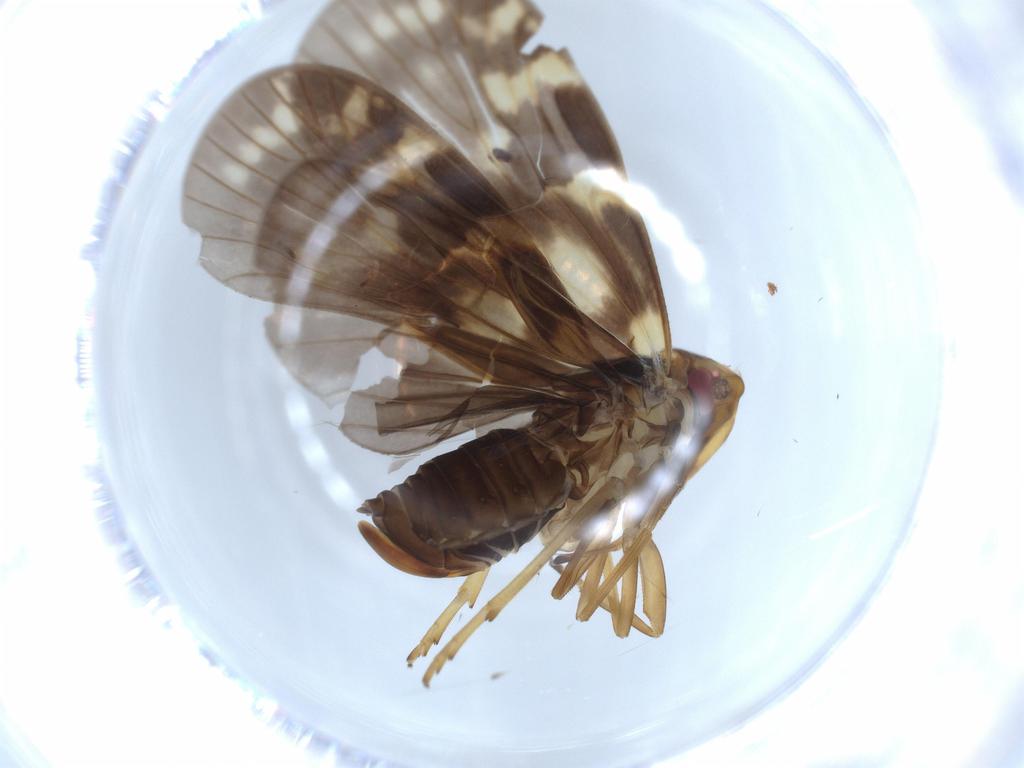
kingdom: Animalia
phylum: Arthropoda
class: Insecta
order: Hemiptera
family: Cixiidae
